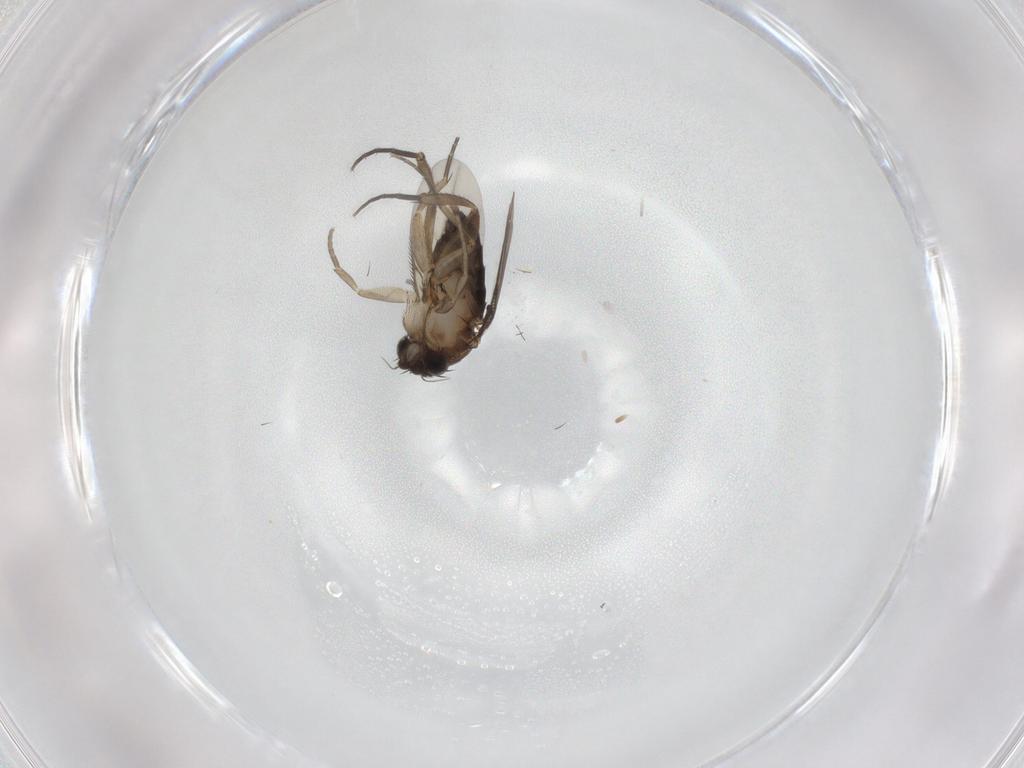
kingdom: Animalia
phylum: Arthropoda
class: Insecta
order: Diptera
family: Phoridae
